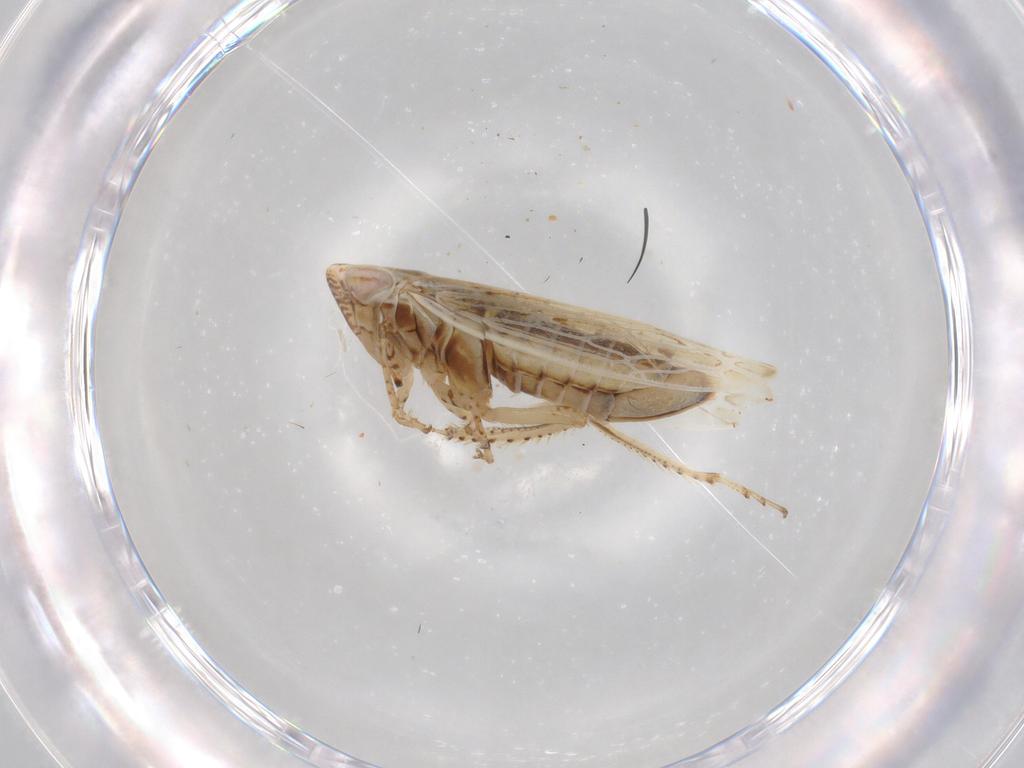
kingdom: Animalia
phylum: Arthropoda
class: Insecta
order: Hemiptera
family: Cicadellidae
